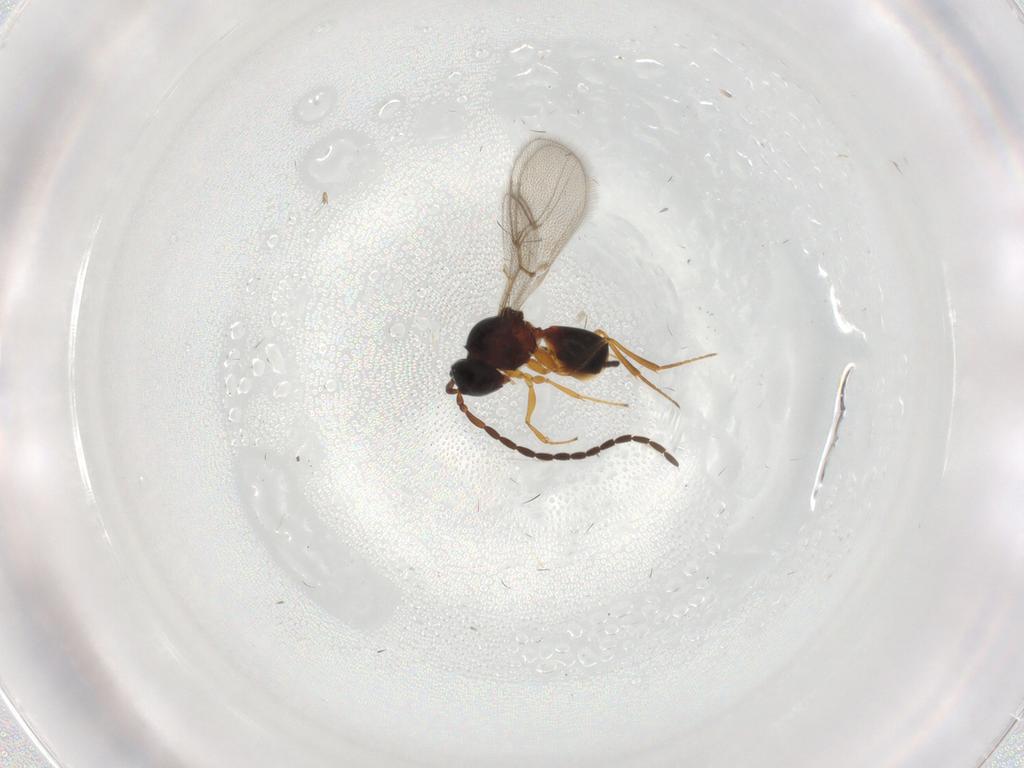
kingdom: Animalia
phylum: Arthropoda
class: Insecta
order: Hymenoptera
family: Figitidae
